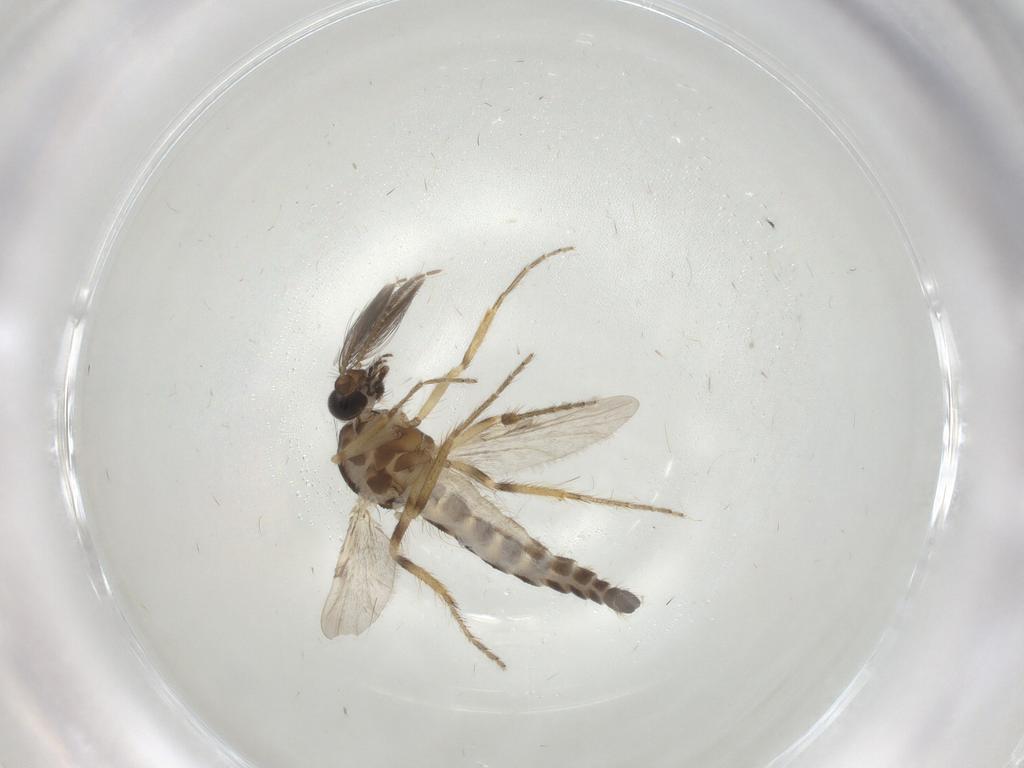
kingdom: Animalia
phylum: Arthropoda
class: Insecta
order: Diptera
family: Ceratopogonidae
